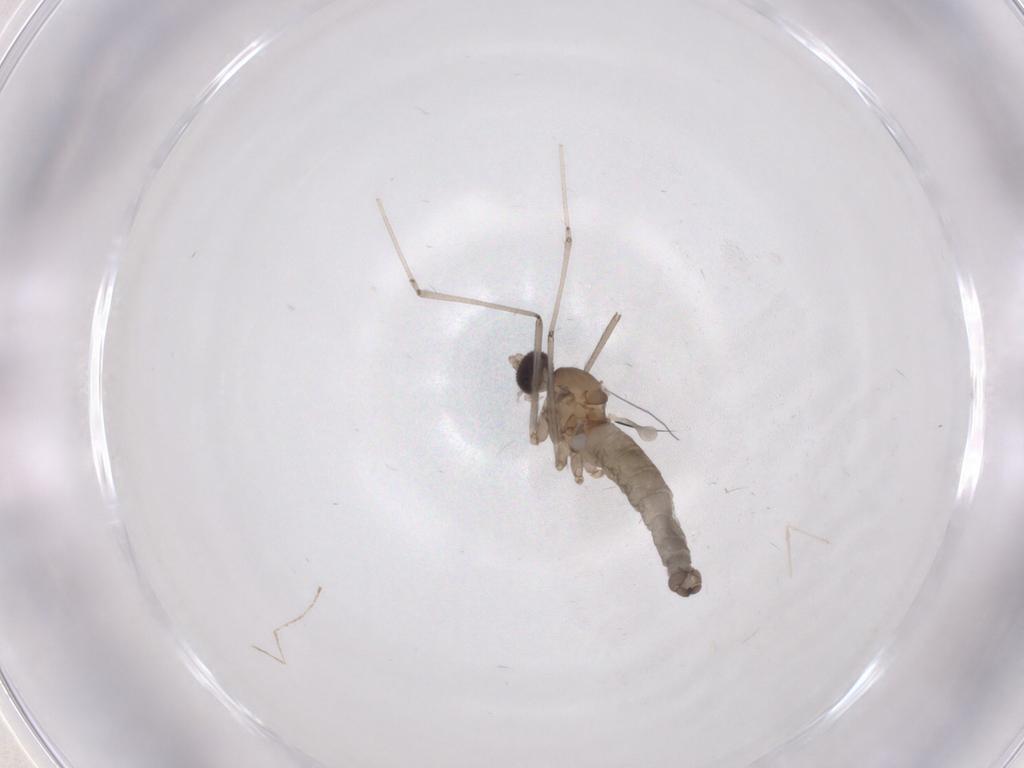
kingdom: Animalia
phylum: Arthropoda
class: Insecta
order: Diptera
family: Cecidomyiidae
